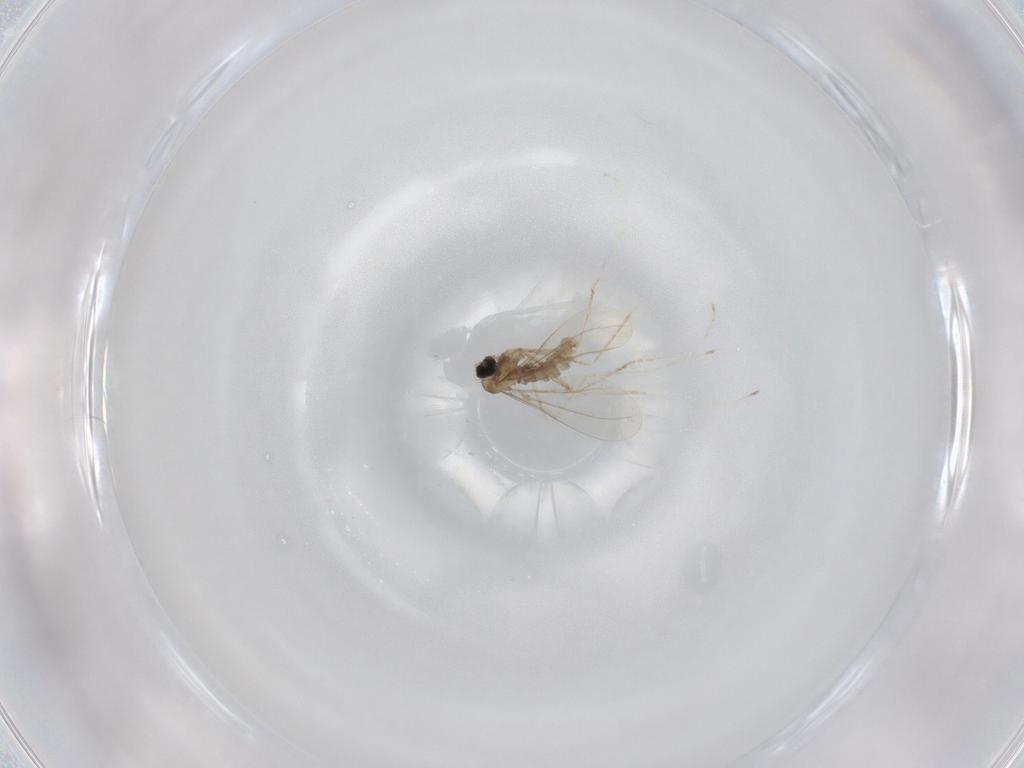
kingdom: Animalia
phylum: Arthropoda
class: Insecta
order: Diptera
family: Cecidomyiidae
